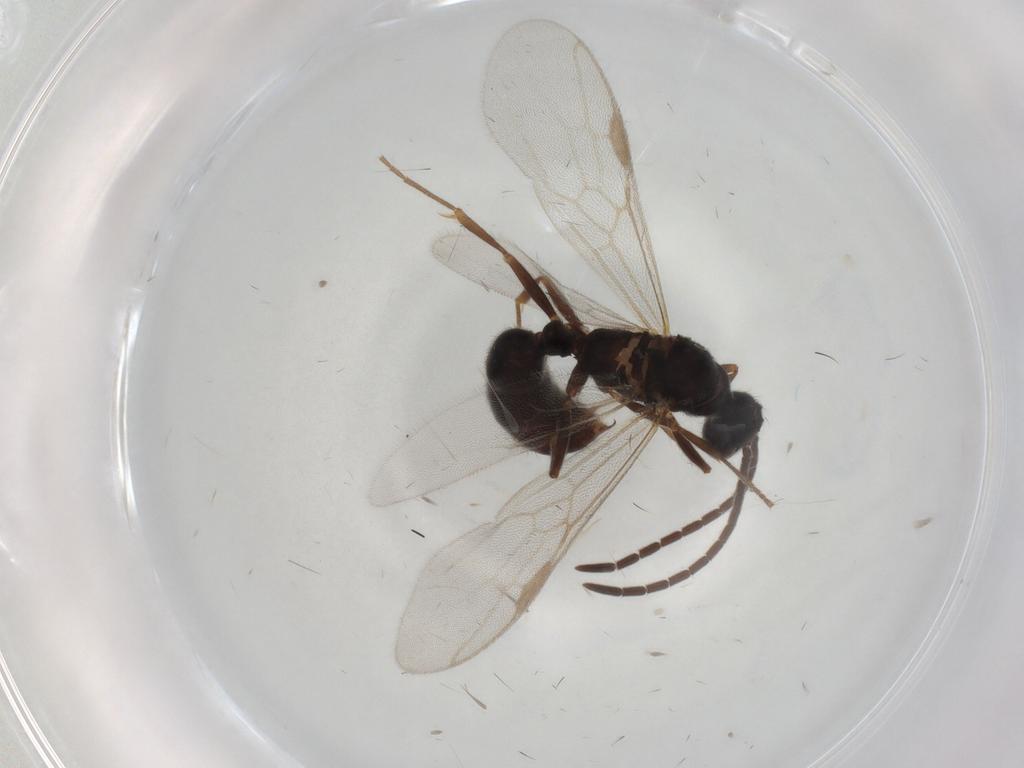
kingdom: Animalia
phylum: Arthropoda
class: Insecta
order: Hymenoptera
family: Formicidae
